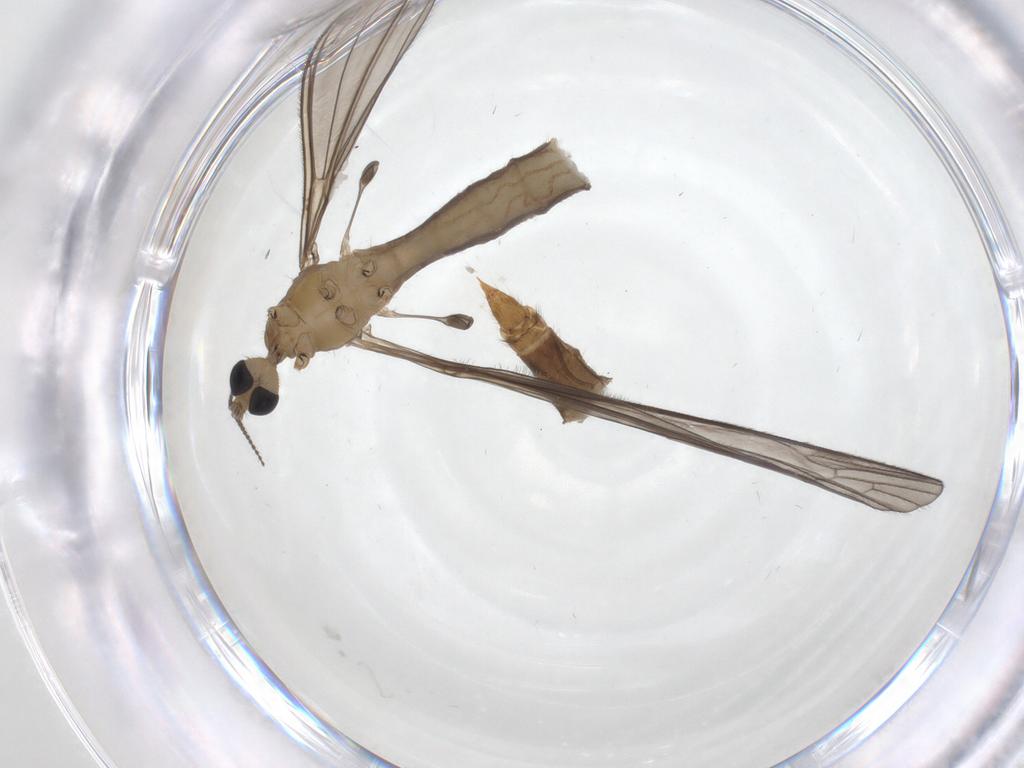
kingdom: Animalia
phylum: Arthropoda
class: Insecta
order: Diptera
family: Limoniidae
